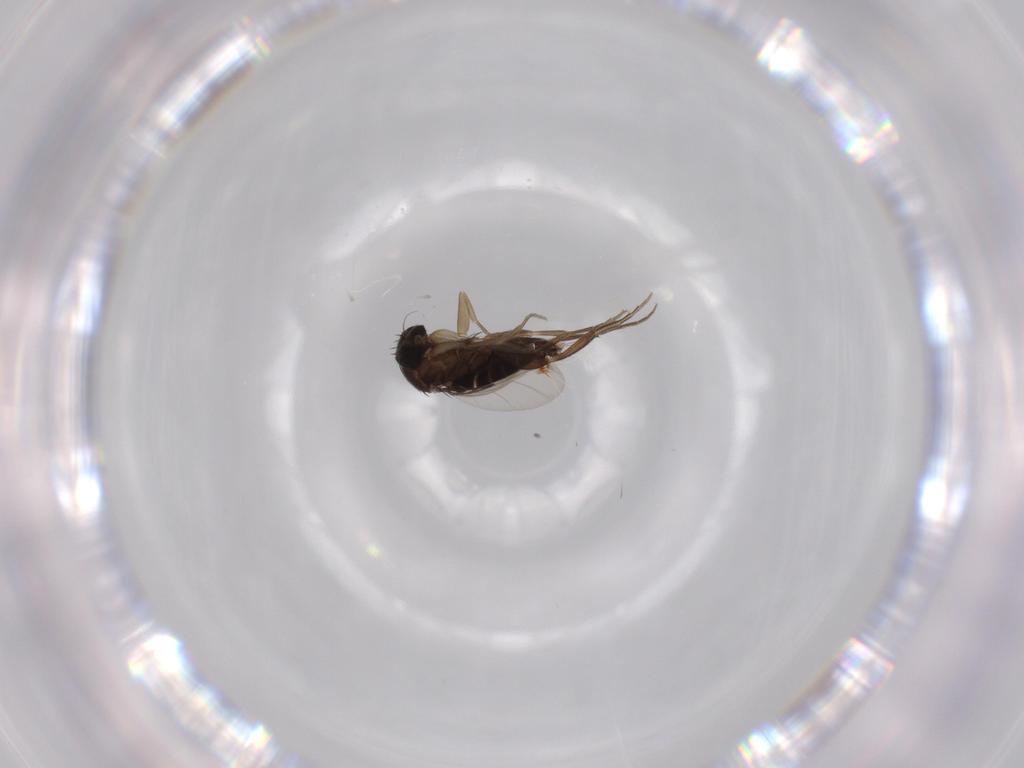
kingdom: Animalia
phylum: Arthropoda
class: Insecta
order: Diptera
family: Phoridae
